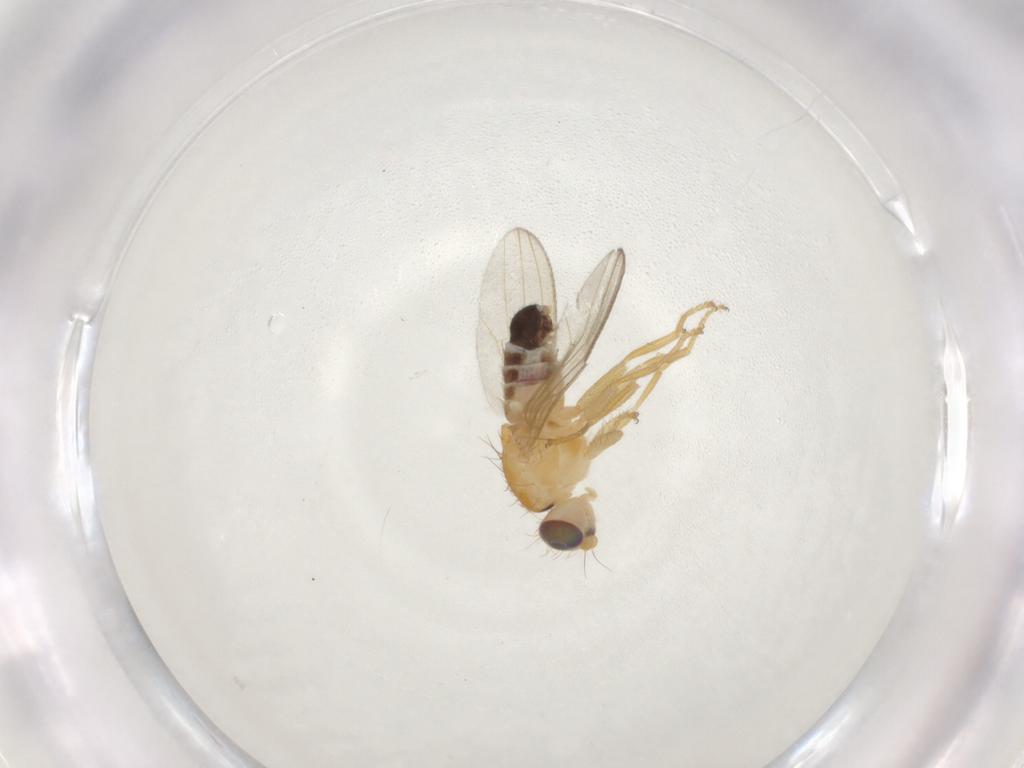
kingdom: Animalia
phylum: Arthropoda
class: Insecta
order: Diptera
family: Chyromyidae
